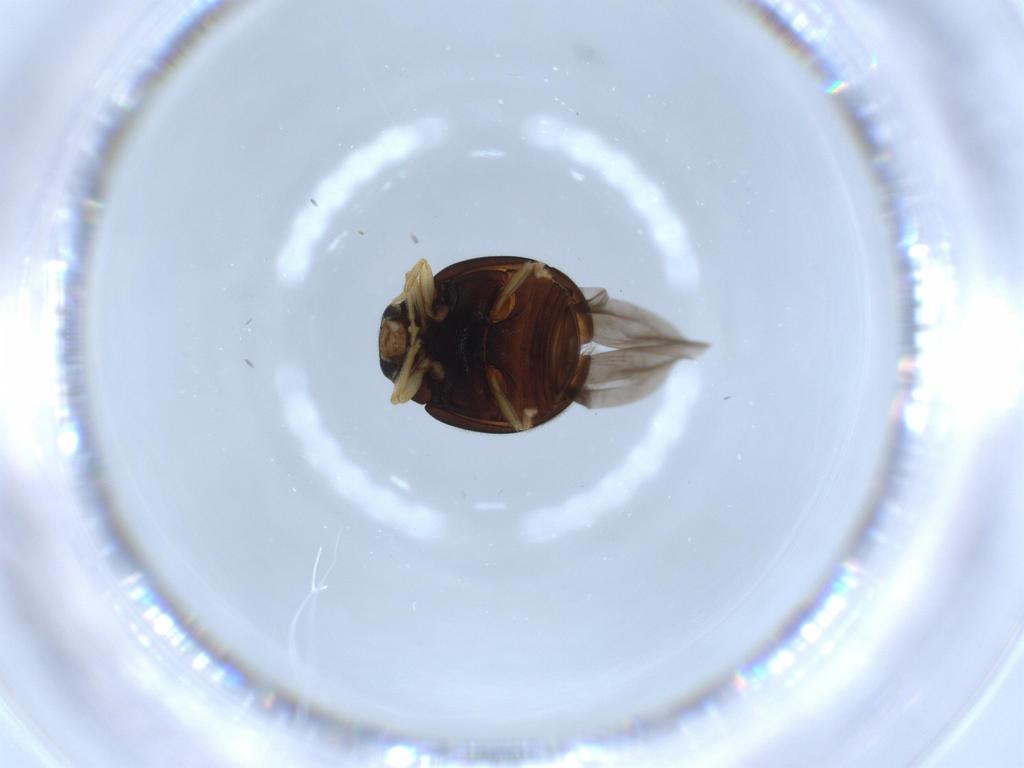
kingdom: Animalia
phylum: Arthropoda
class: Insecta
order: Coleoptera
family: Coccinellidae
